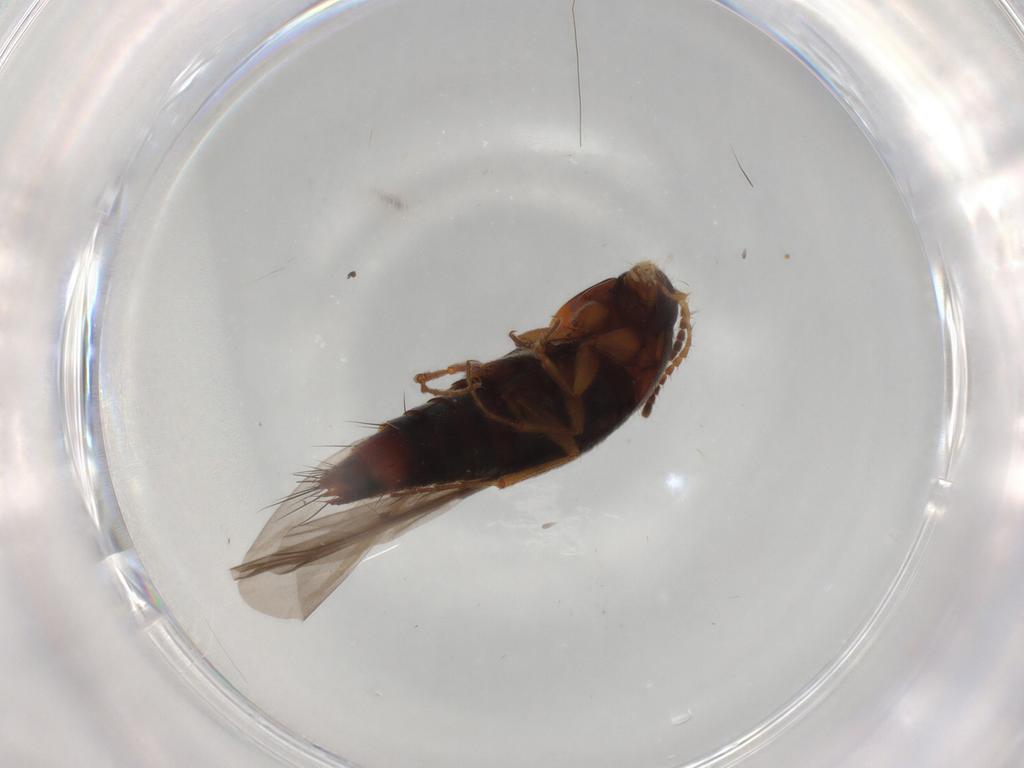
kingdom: Animalia
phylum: Arthropoda
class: Insecta
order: Coleoptera
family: Staphylinidae
